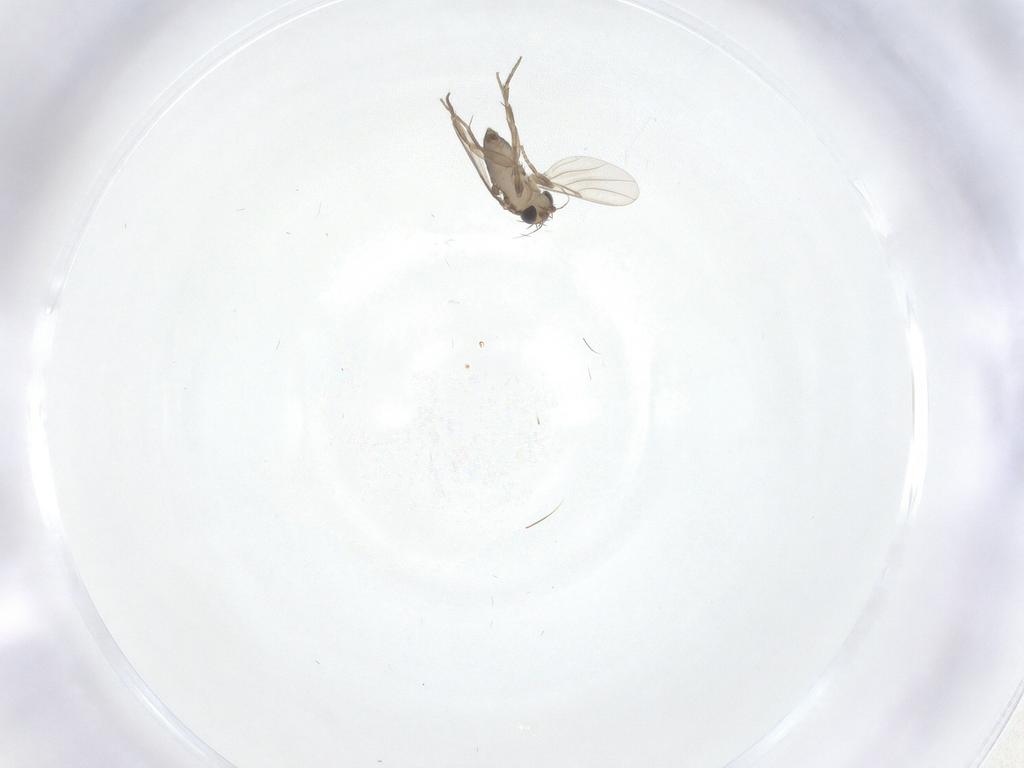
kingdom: Animalia
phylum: Arthropoda
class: Insecta
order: Diptera
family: Phoridae
